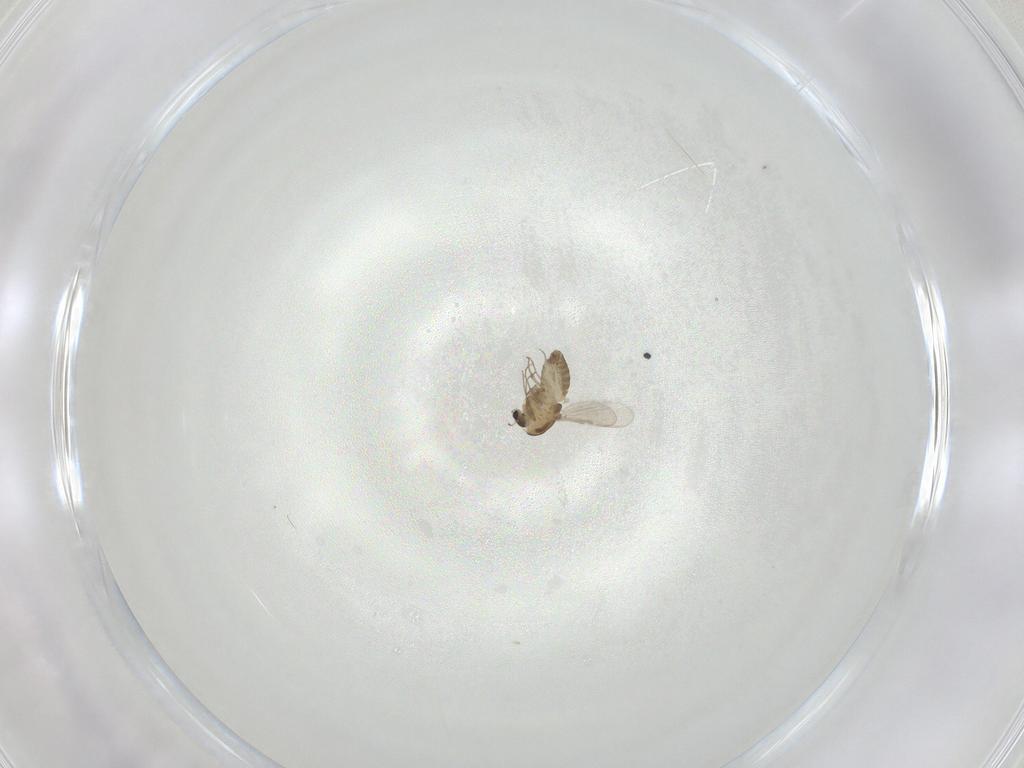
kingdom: Animalia
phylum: Arthropoda
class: Insecta
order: Diptera
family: Chironomidae
